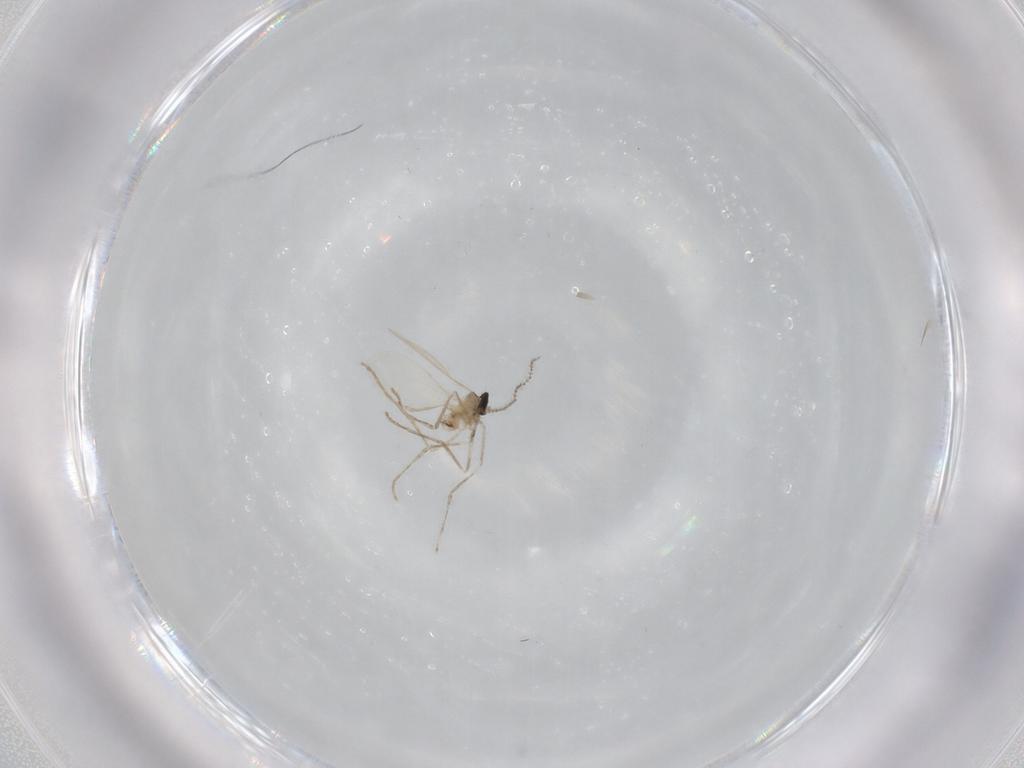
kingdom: Animalia
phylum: Arthropoda
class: Insecta
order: Diptera
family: Cecidomyiidae
